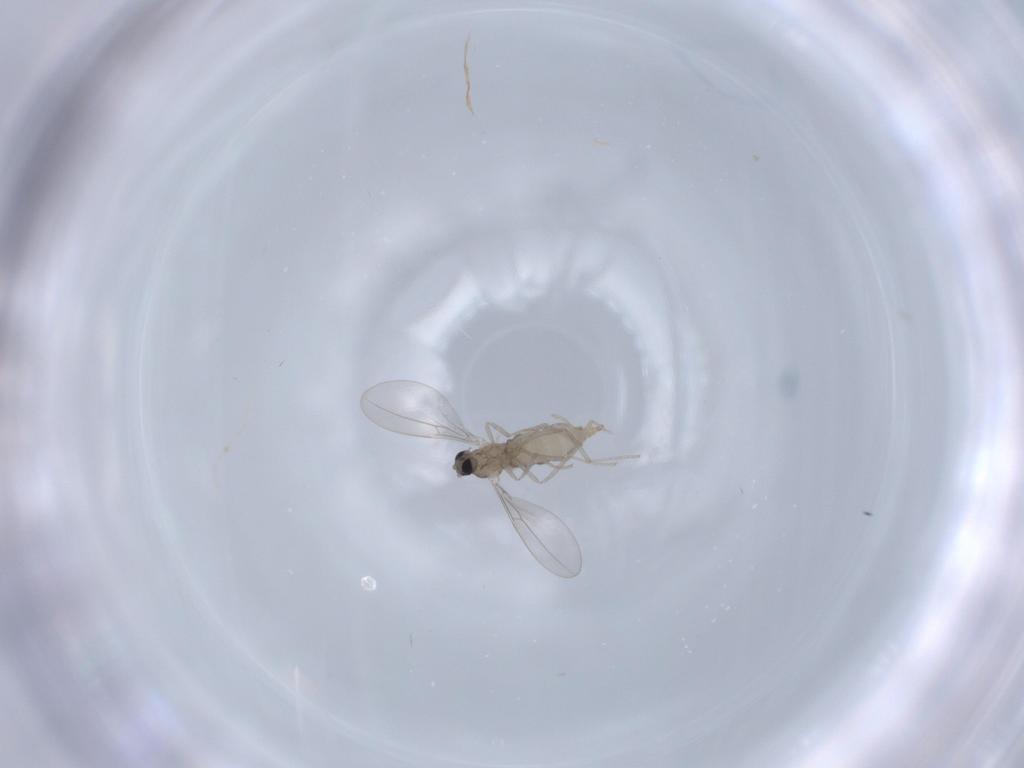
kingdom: Animalia
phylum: Arthropoda
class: Insecta
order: Diptera
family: Cecidomyiidae
